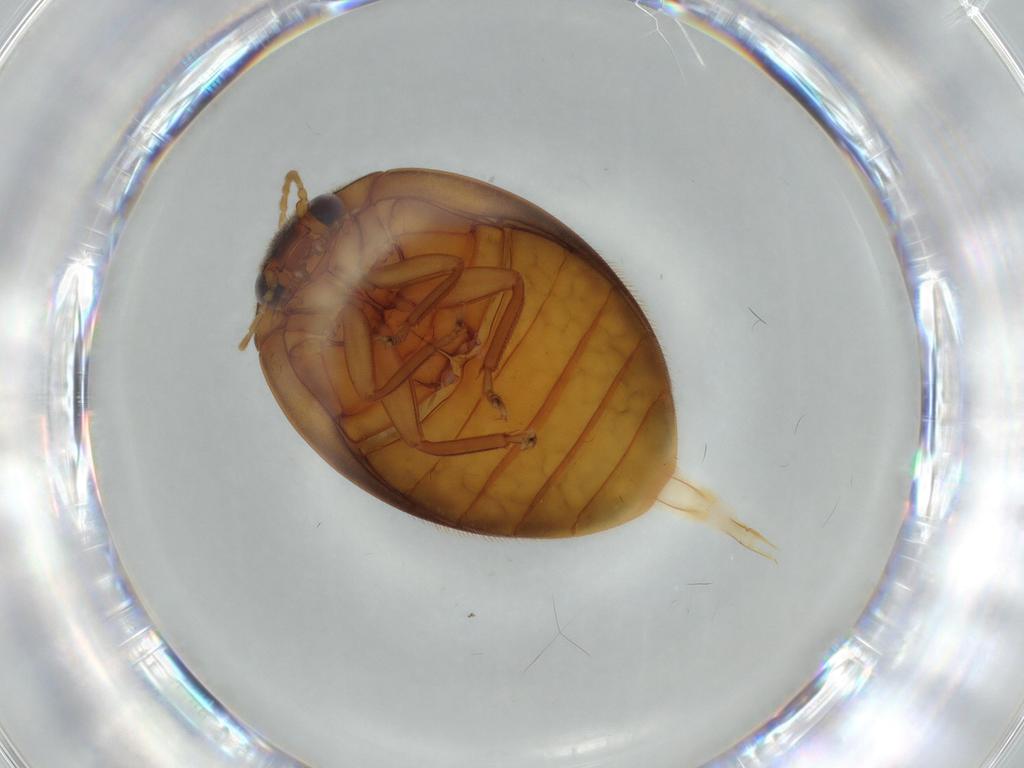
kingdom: Animalia
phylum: Arthropoda
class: Insecta
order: Coleoptera
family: Scirtidae
